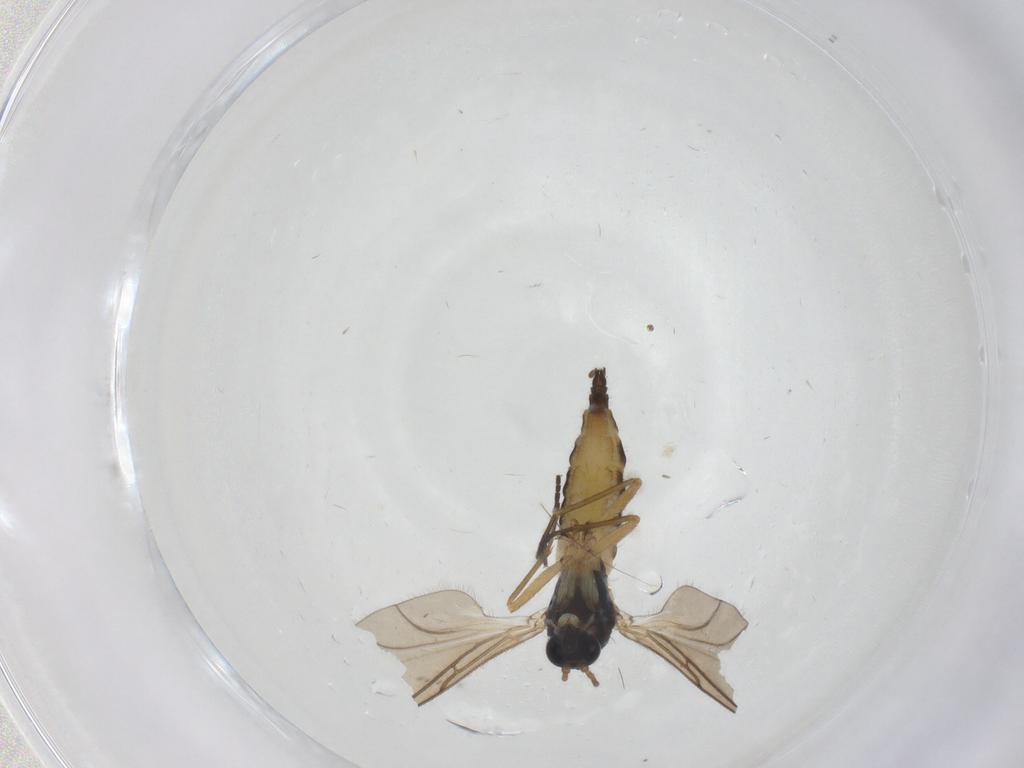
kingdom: Animalia
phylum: Arthropoda
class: Insecta
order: Diptera
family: Sciaridae
